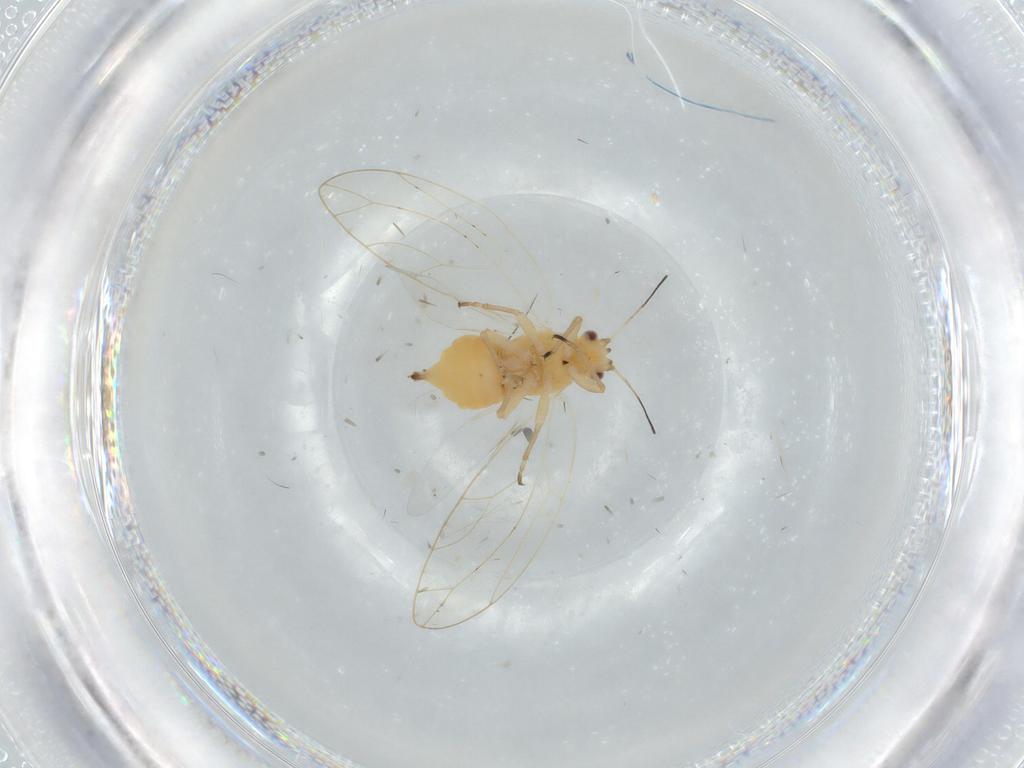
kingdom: Animalia
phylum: Arthropoda
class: Insecta
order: Hemiptera
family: Triozidae
